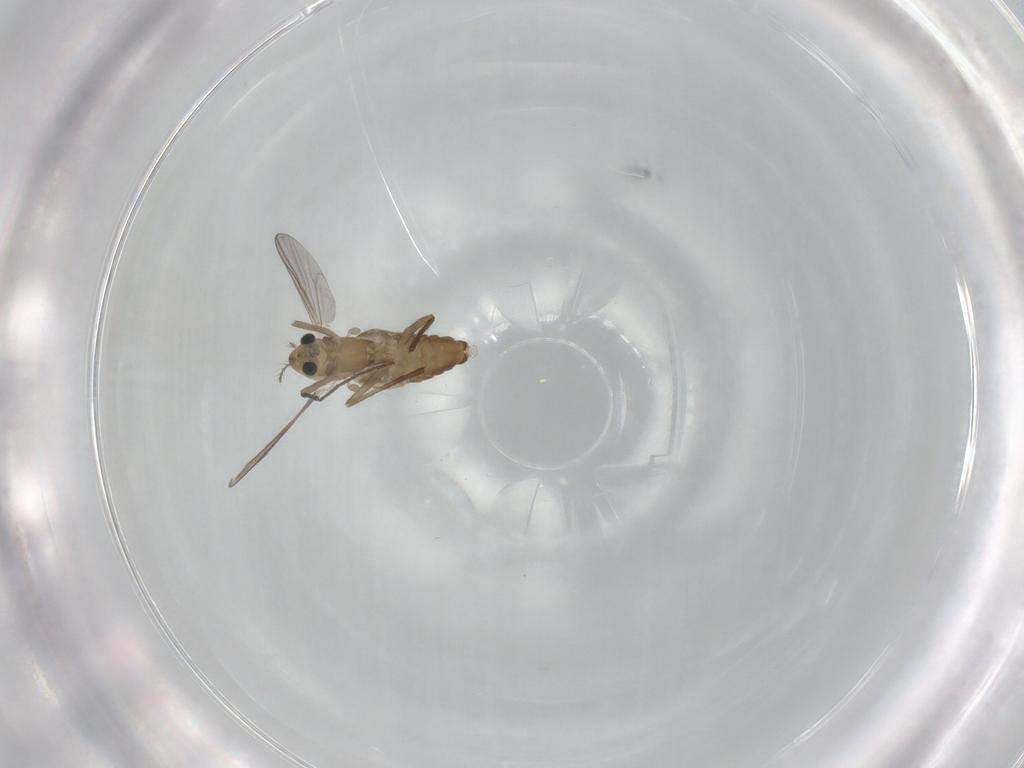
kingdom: Animalia
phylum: Arthropoda
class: Insecta
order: Diptera
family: Chironomidae
